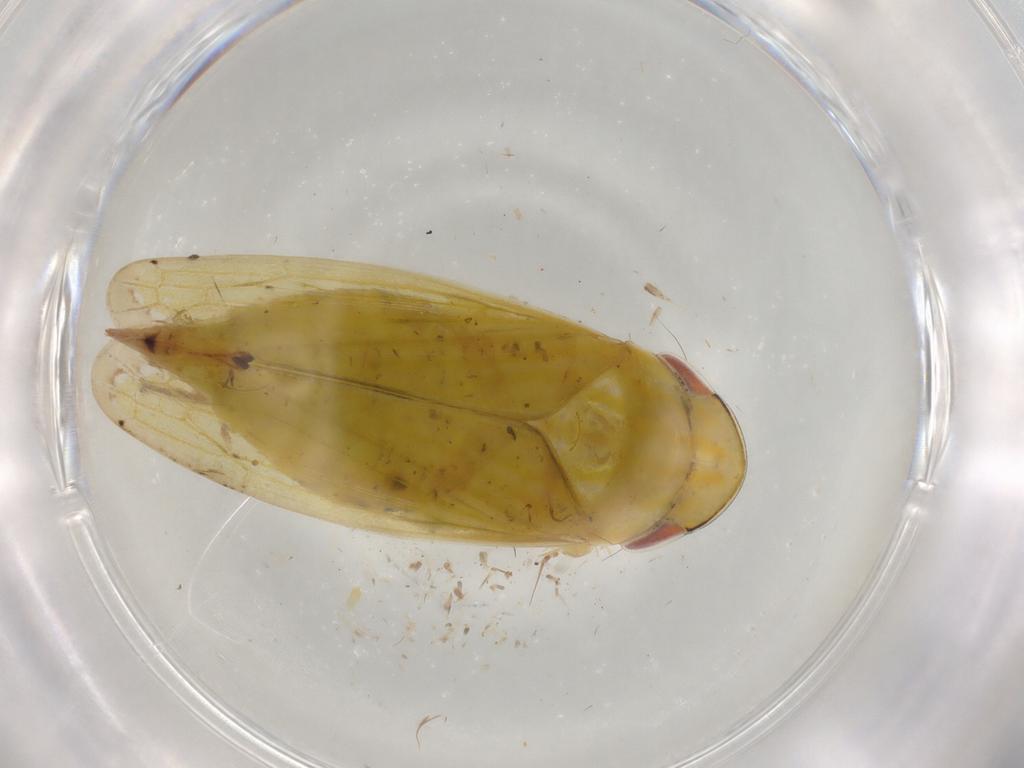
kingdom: Animalia
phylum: Arthropoda
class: Insecta
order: Hemiptera
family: Cicadellidae
